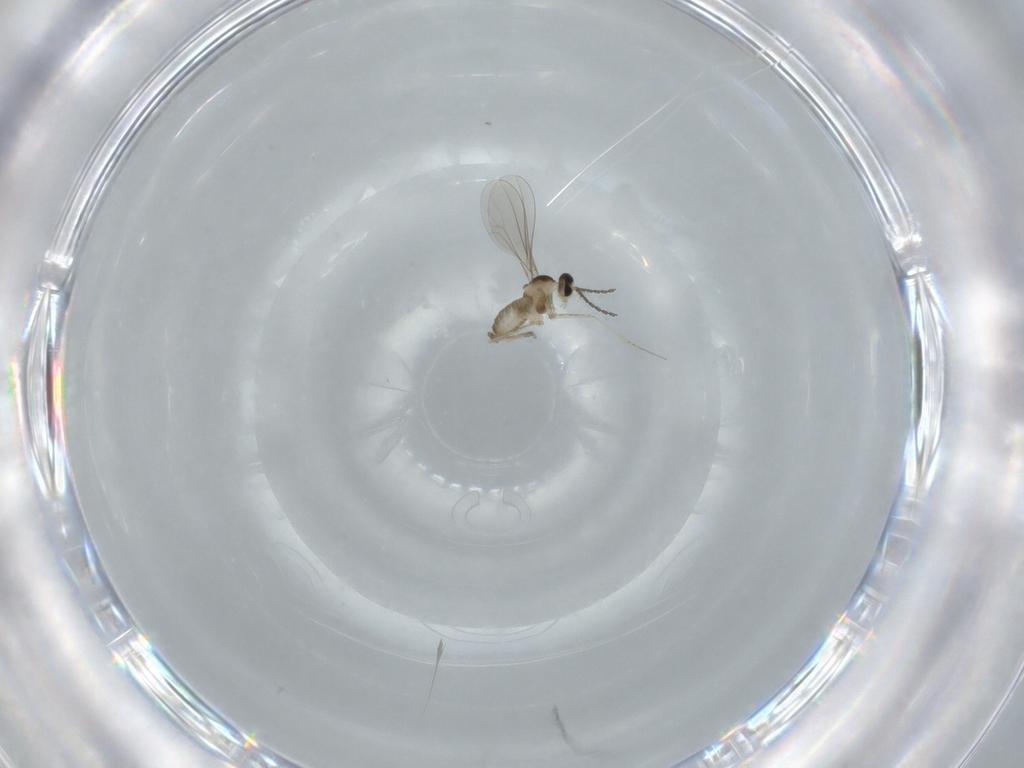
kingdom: Animalia
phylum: Arthropoda
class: Insecta
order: Diptera
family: Cecidomyiidae
